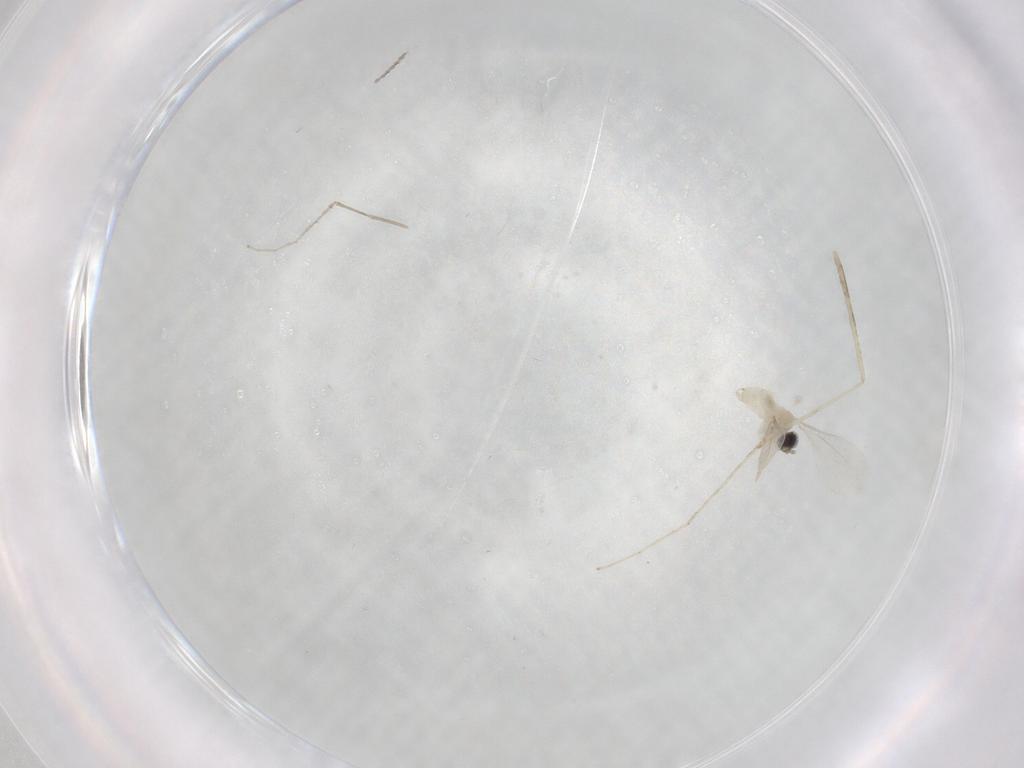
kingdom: Animalia
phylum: Arthropoda
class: Insecta
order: Diptera
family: Cecidomyiidae
